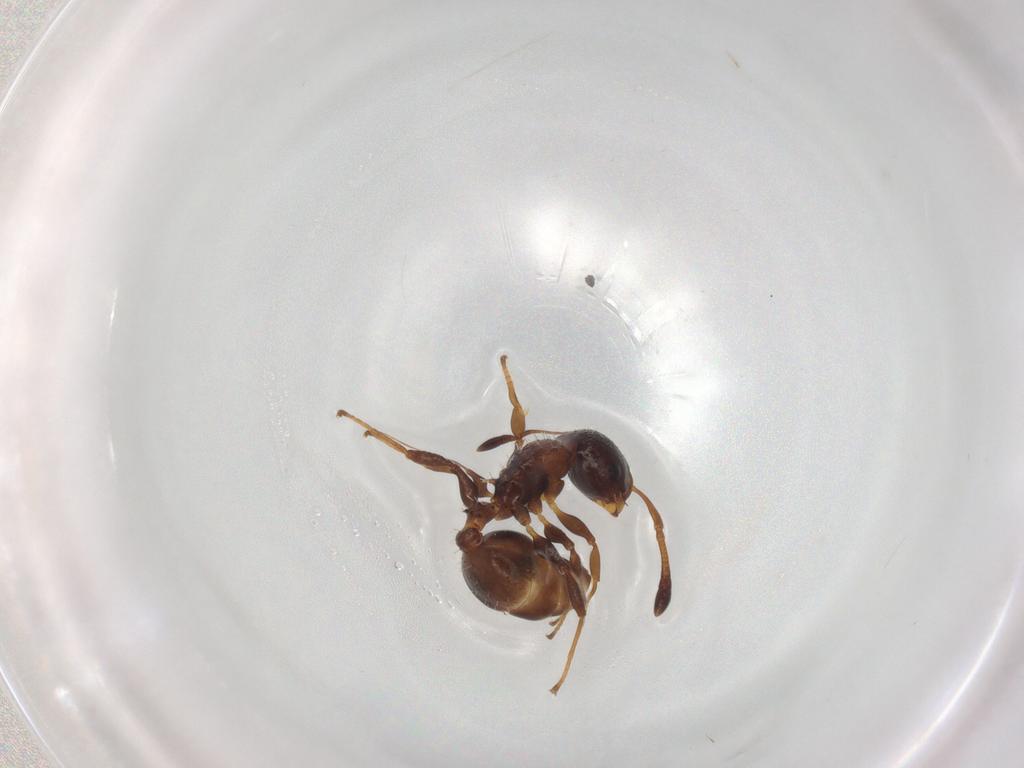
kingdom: Animalia
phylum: Arthropoda
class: Insecta
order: Hymenoptera
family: Formicidae
